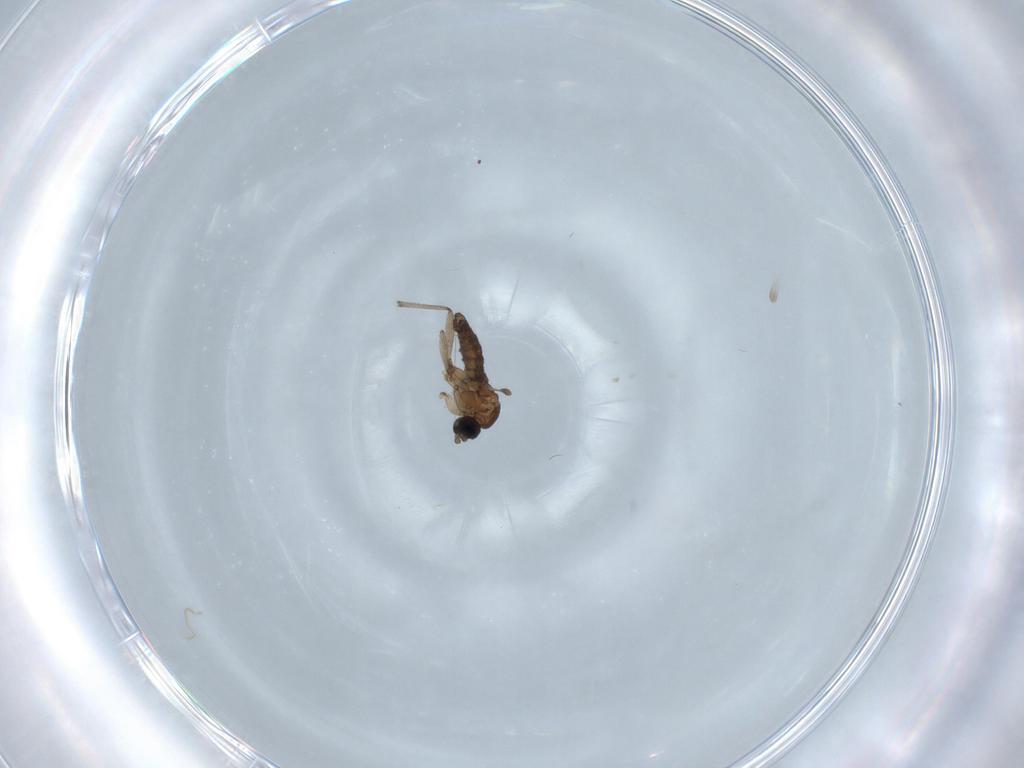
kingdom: Animalia
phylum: Arthropoda
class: Insecta
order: Diptera
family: Sciaridae
